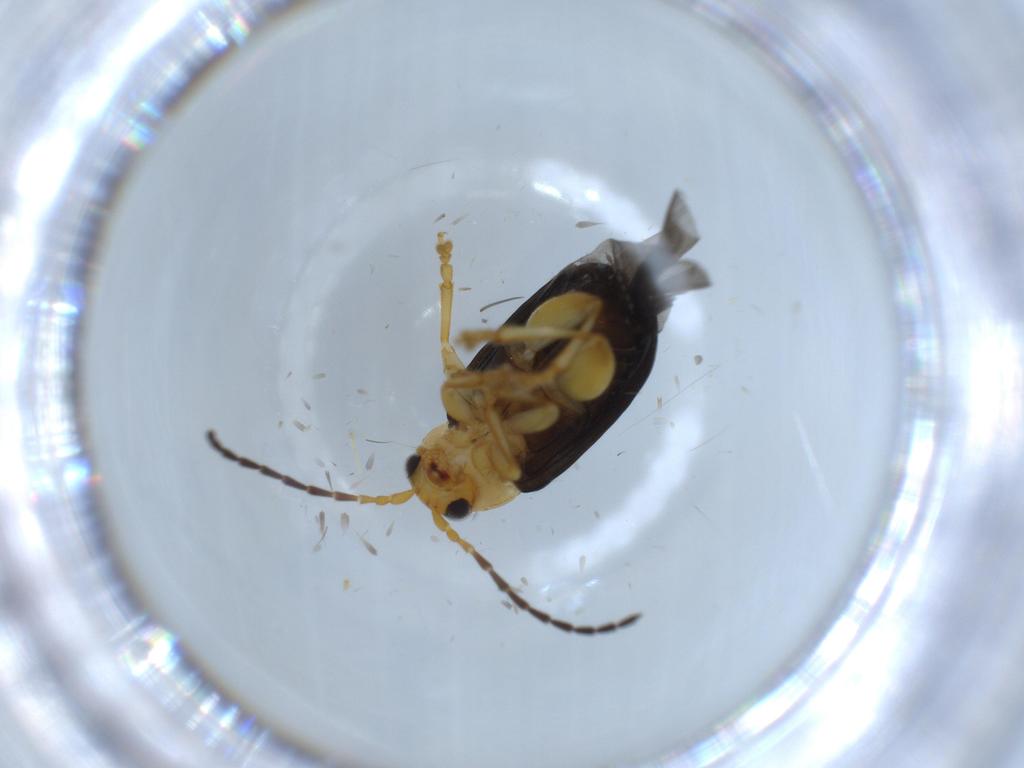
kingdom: Animalia
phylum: Arthropoda
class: Insecta
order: Coleoptera
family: Chrysomelidae
